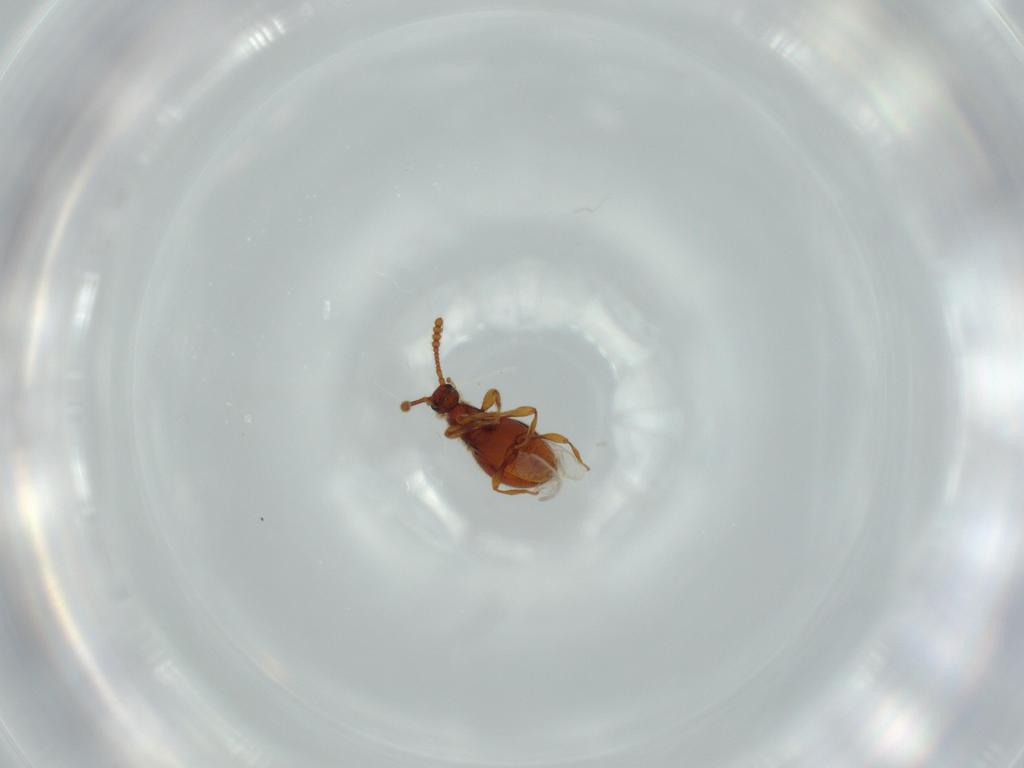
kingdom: Animalia
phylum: Arthropoda
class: Insecta
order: Coleoptera
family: Staphylinidae
